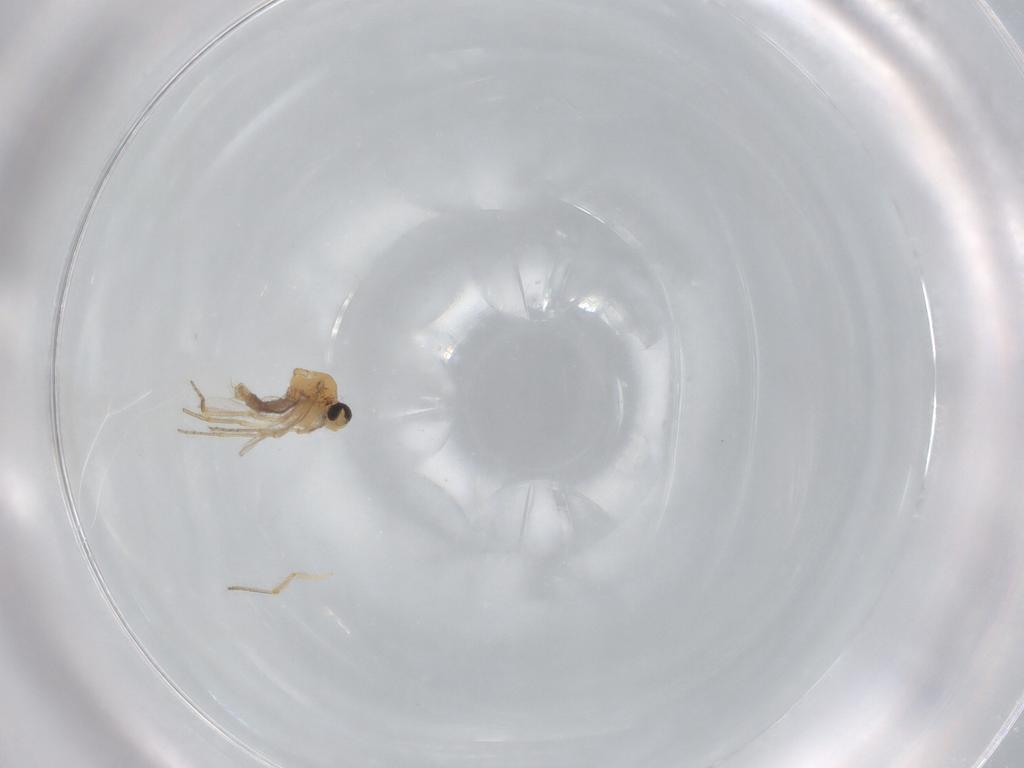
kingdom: Animalia
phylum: Arthropoda
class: Insecta
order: Diptera
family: Ceratopogonidae
